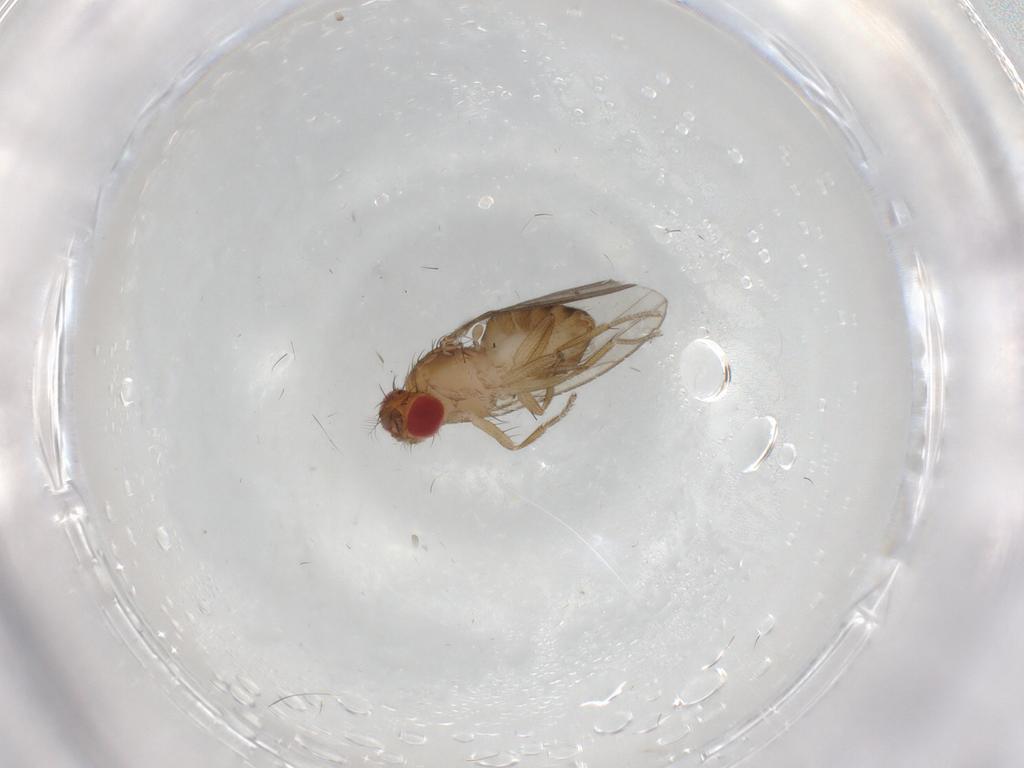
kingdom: Animalia
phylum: Arthropoda
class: Insecta
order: Diptera
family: Drosophilidae
